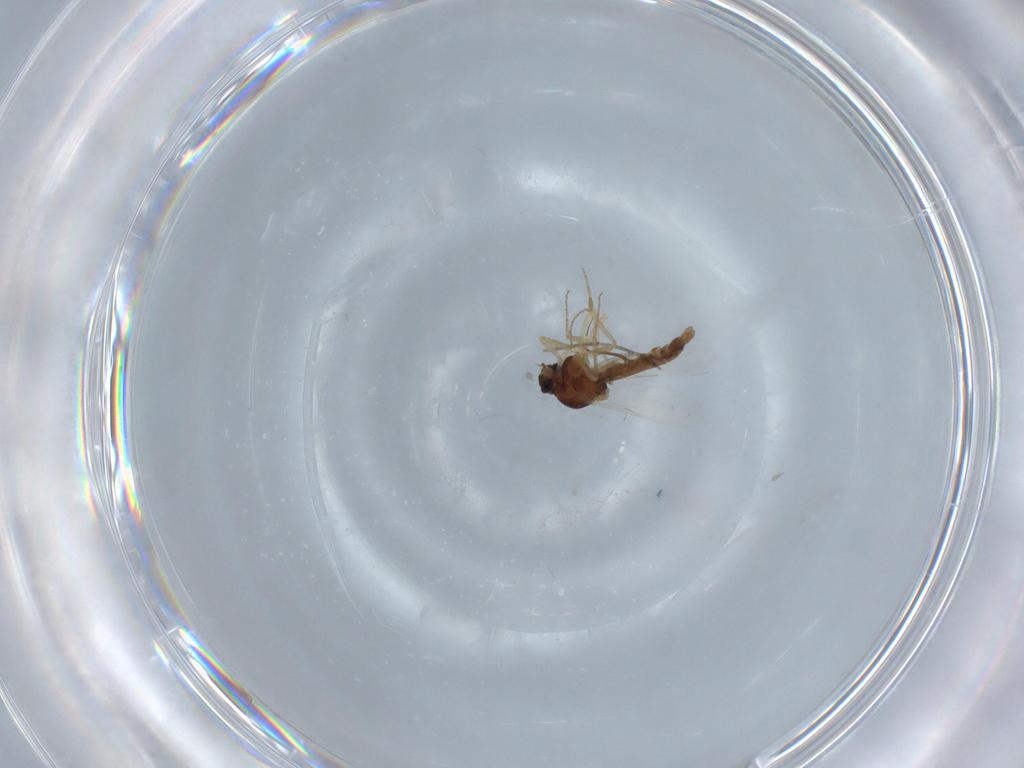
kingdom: Animalia
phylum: Arthropoda
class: Insecta
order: Diptera
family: Ceratopogonidae
